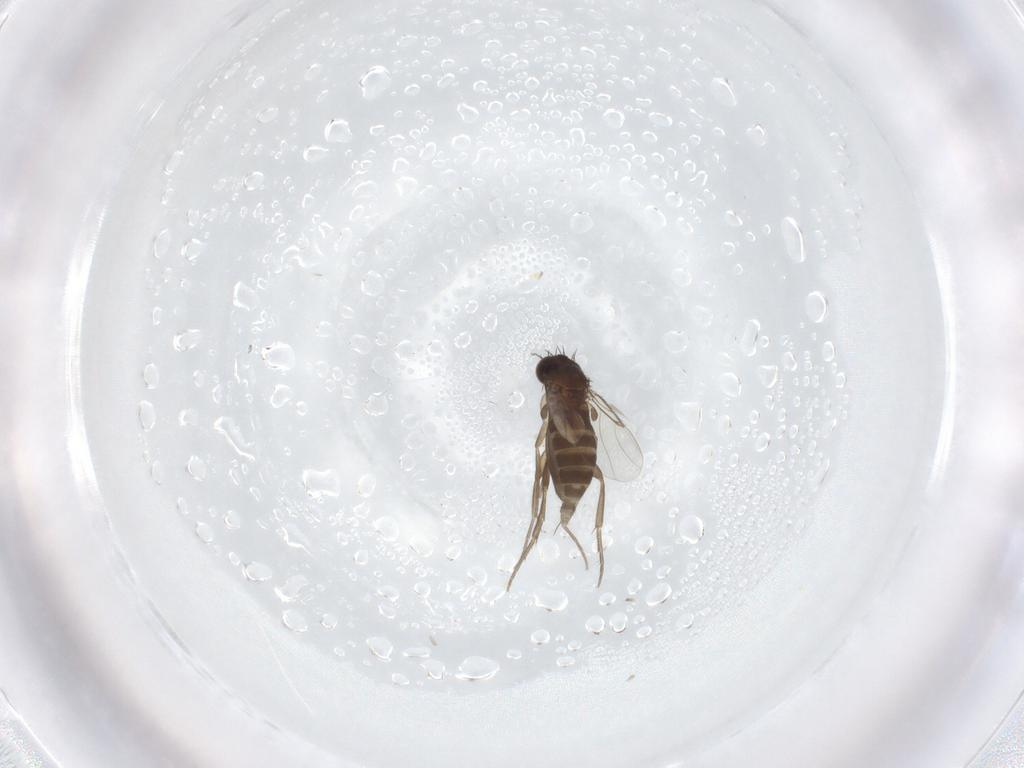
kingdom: Animalia
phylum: Arthropoda
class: Insecta
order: Diptera
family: Phoridae
